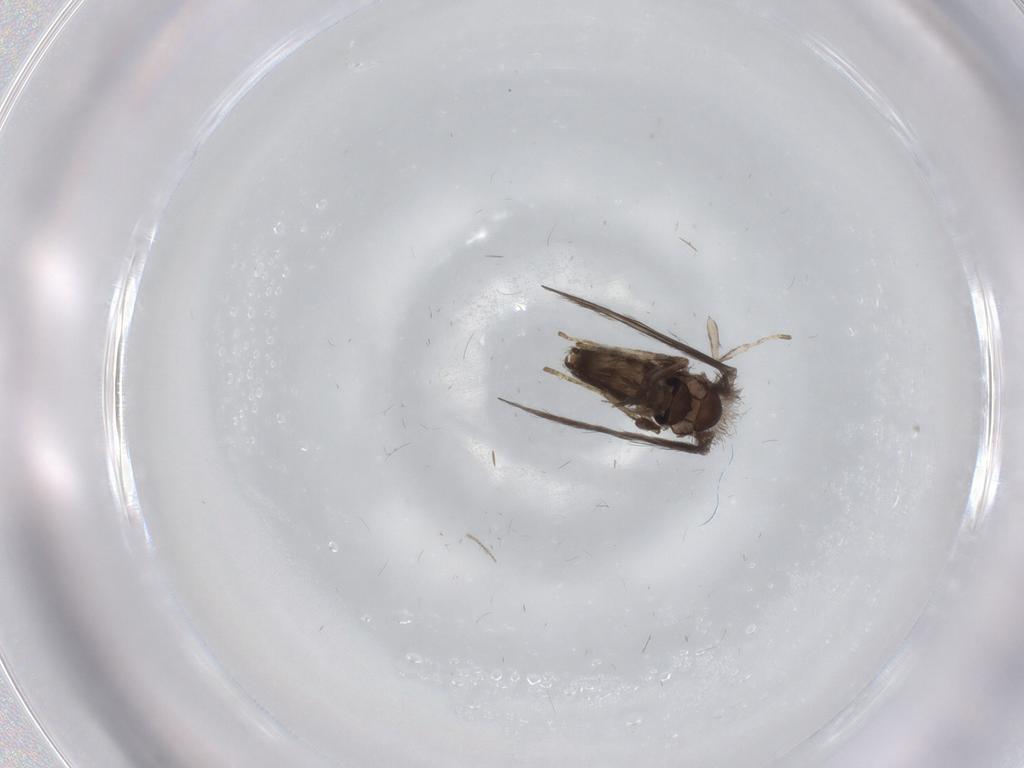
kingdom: Animalia
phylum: Arthropoda
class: Insecta
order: Diptera
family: Psychodidae
